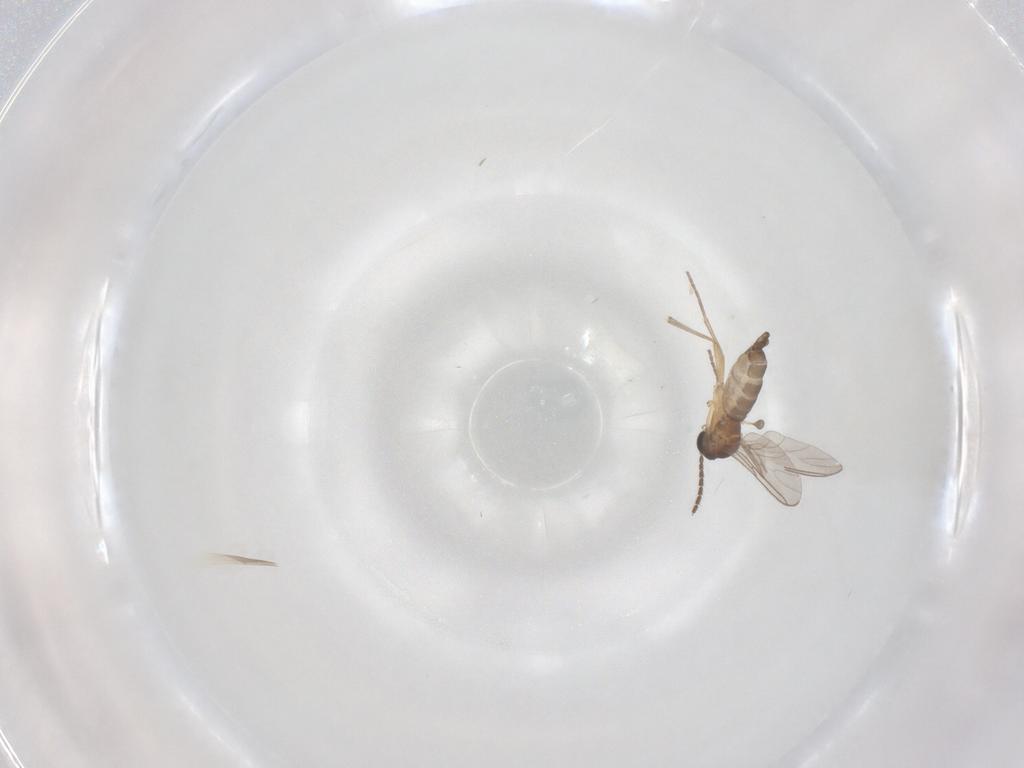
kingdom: Animalia
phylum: Arthropoda
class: Insecta
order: Diptera
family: Sciaridae
